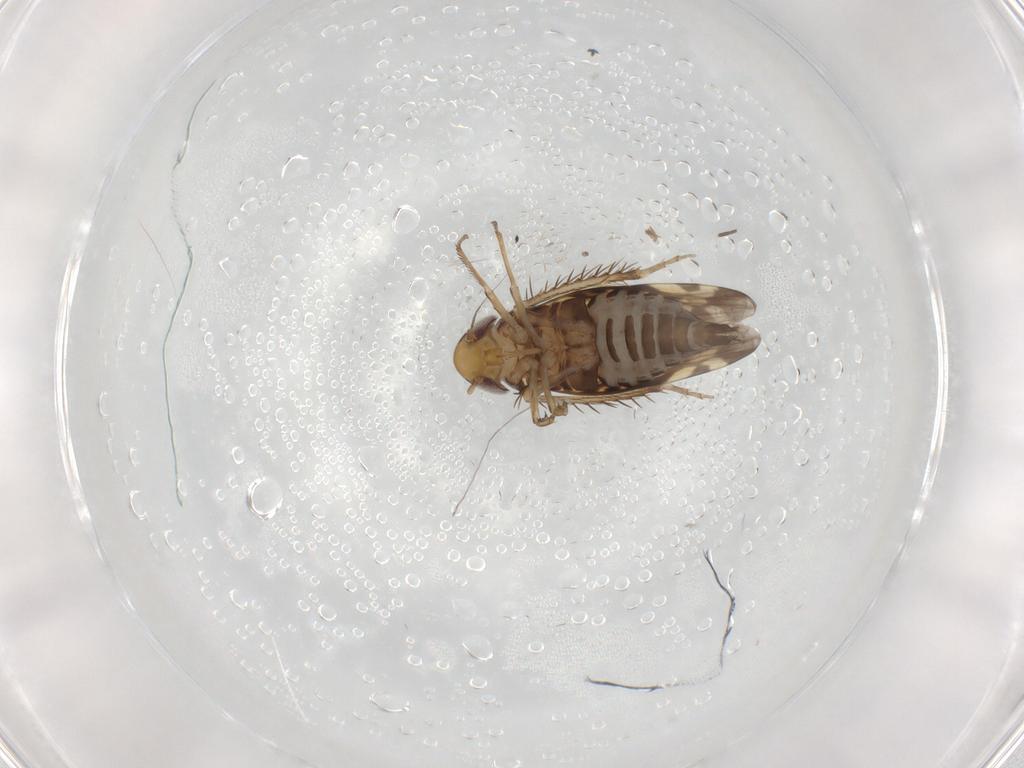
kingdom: Animalia
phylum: Arthropoda
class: Insecta
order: Hemiptera
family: Cicadellidae
